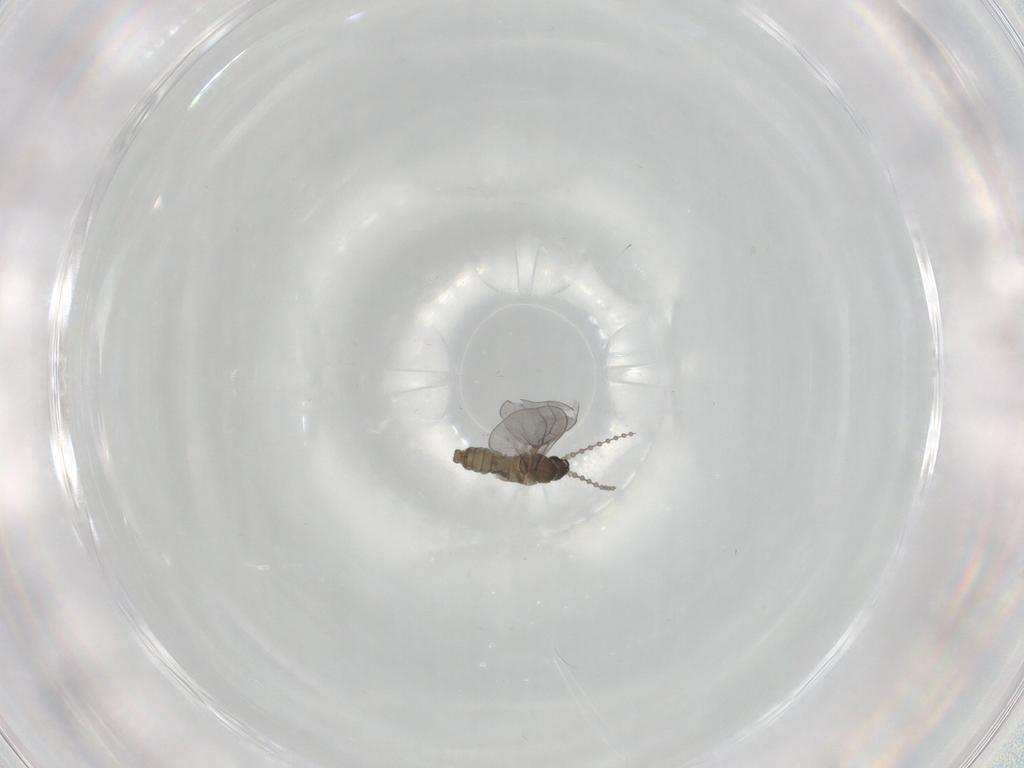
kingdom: Animalia
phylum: Arthropoda
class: Insecta
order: Diptera
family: Cecidomyiidae
